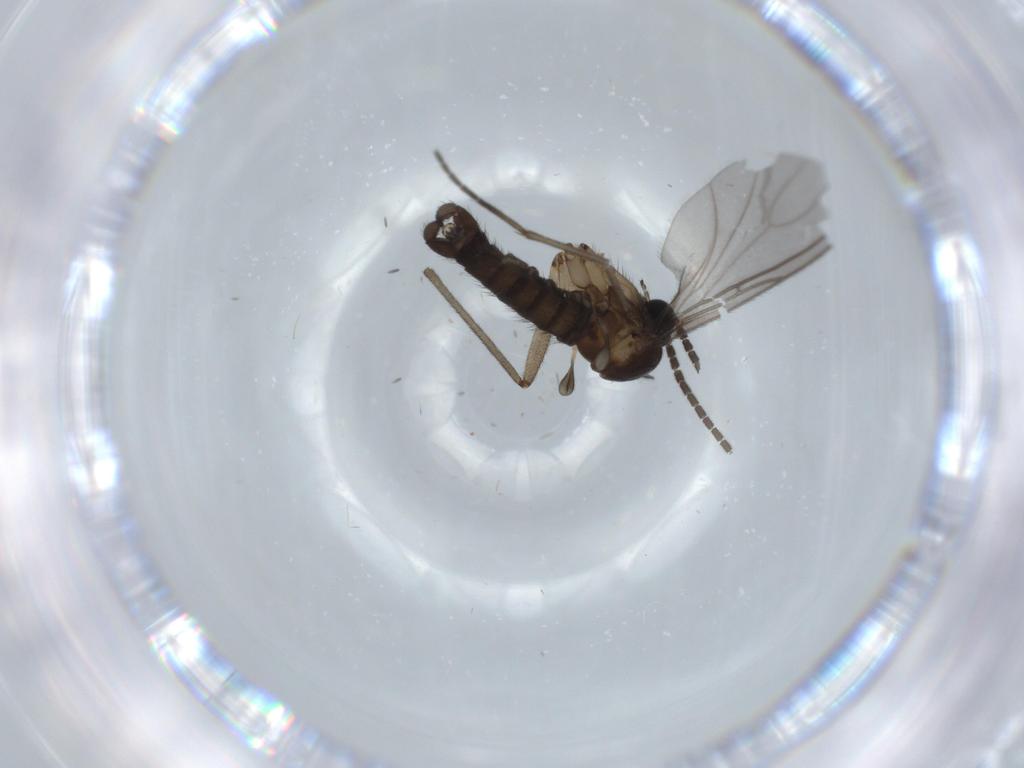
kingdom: Animalia
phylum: Arthropoda
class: Insecta
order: Diptera
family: Sciaridae
